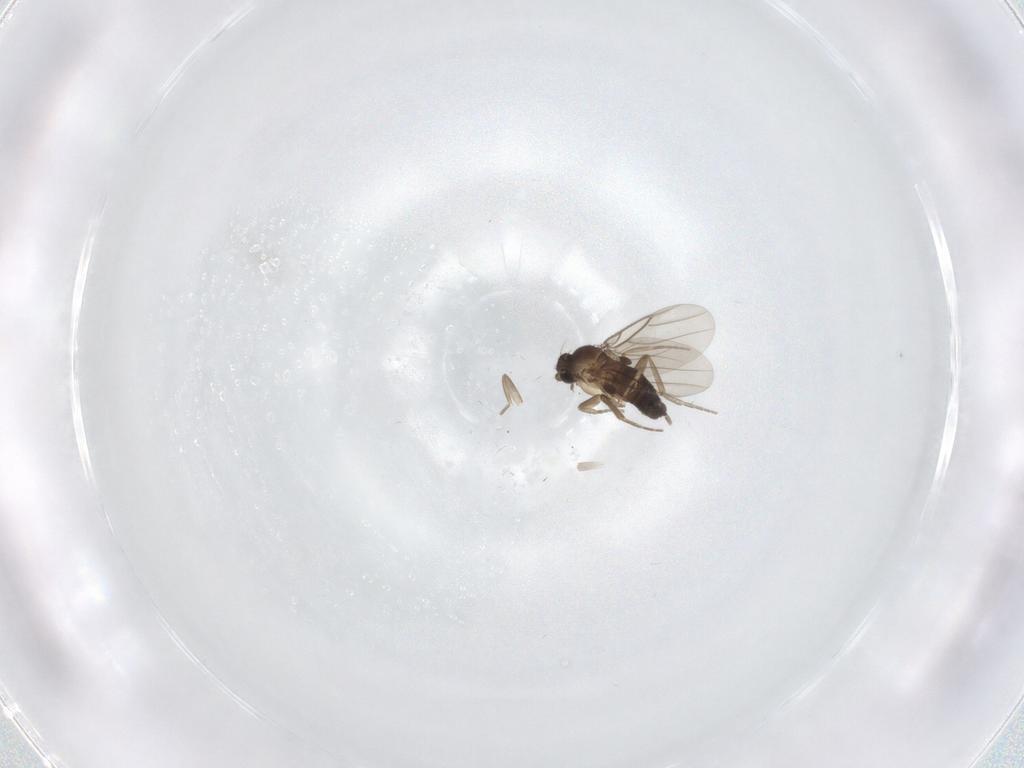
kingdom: Animalia
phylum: Arthropoda
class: Insecta
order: Diptera
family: Phoridae
